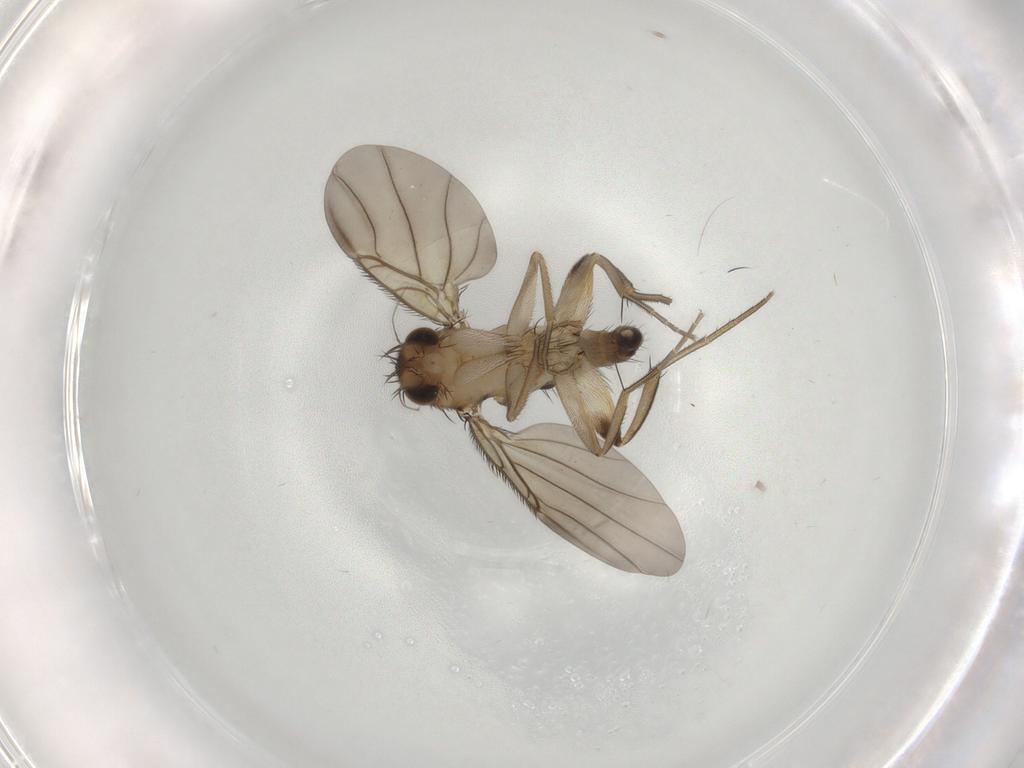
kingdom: Animalia
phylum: Arthropoda
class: Insecta
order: Diptera
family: Phoridae
